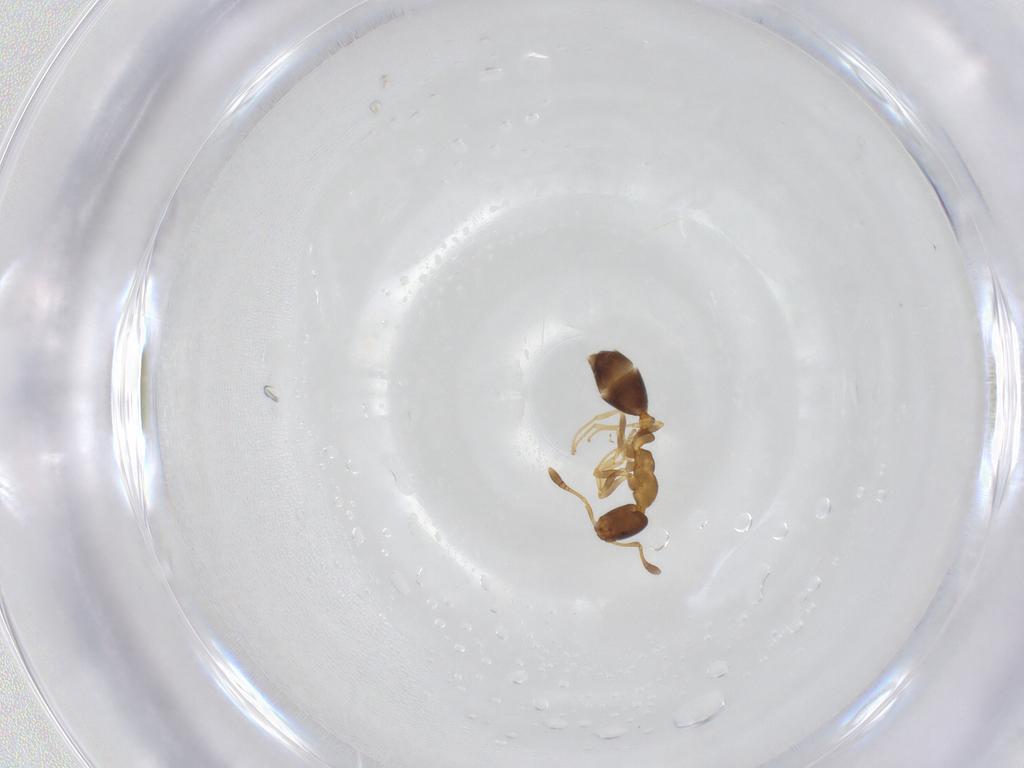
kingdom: Animalia
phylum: Arthropoda
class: Insecta
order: Hymenoptera
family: Formicidae
